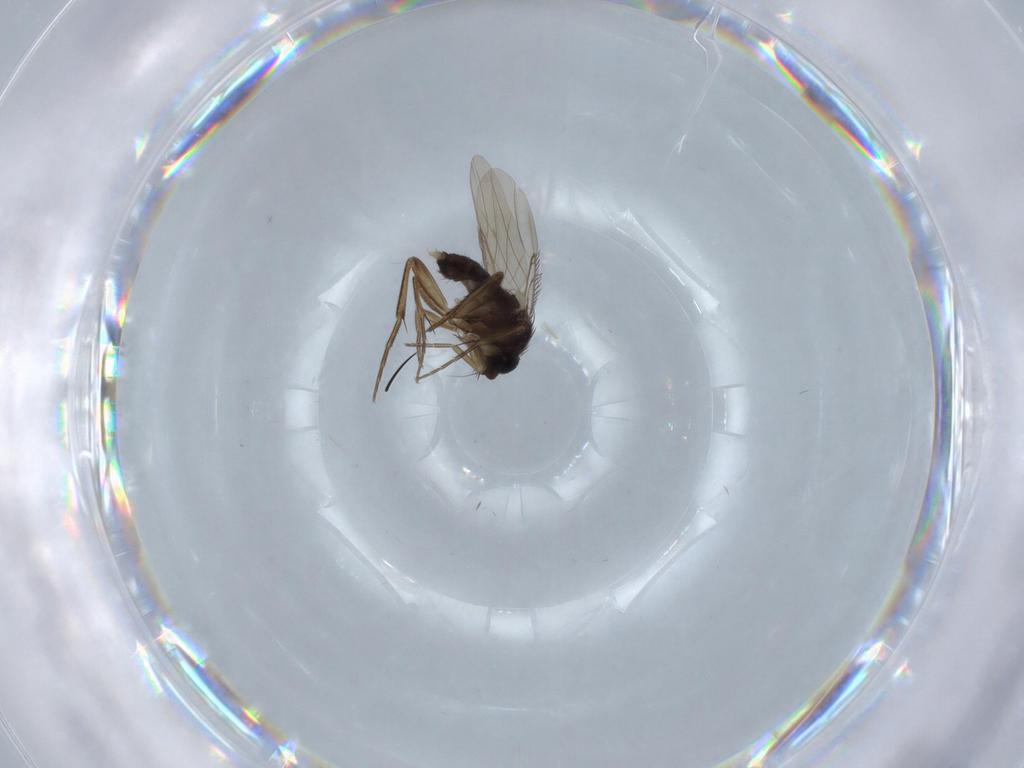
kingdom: Animalia
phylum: Arthropoda
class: Insecta
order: Diptera
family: Phoridae
